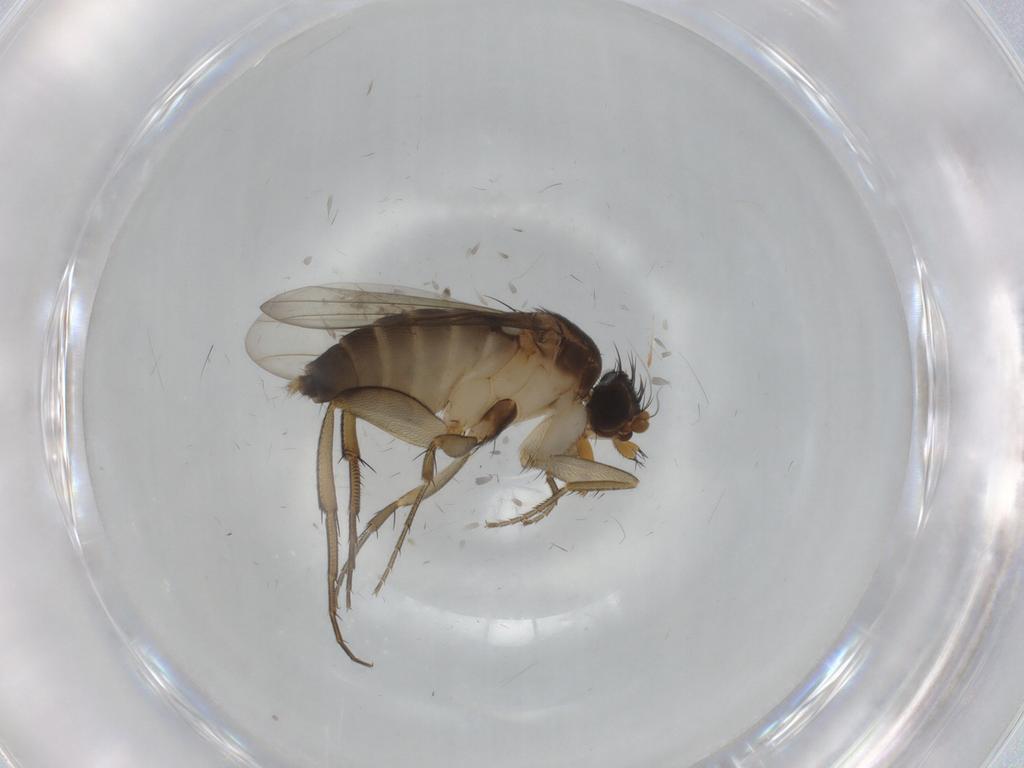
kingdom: Animalia
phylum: Arthropoda
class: Insecta
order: Diptera
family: Phoridae
